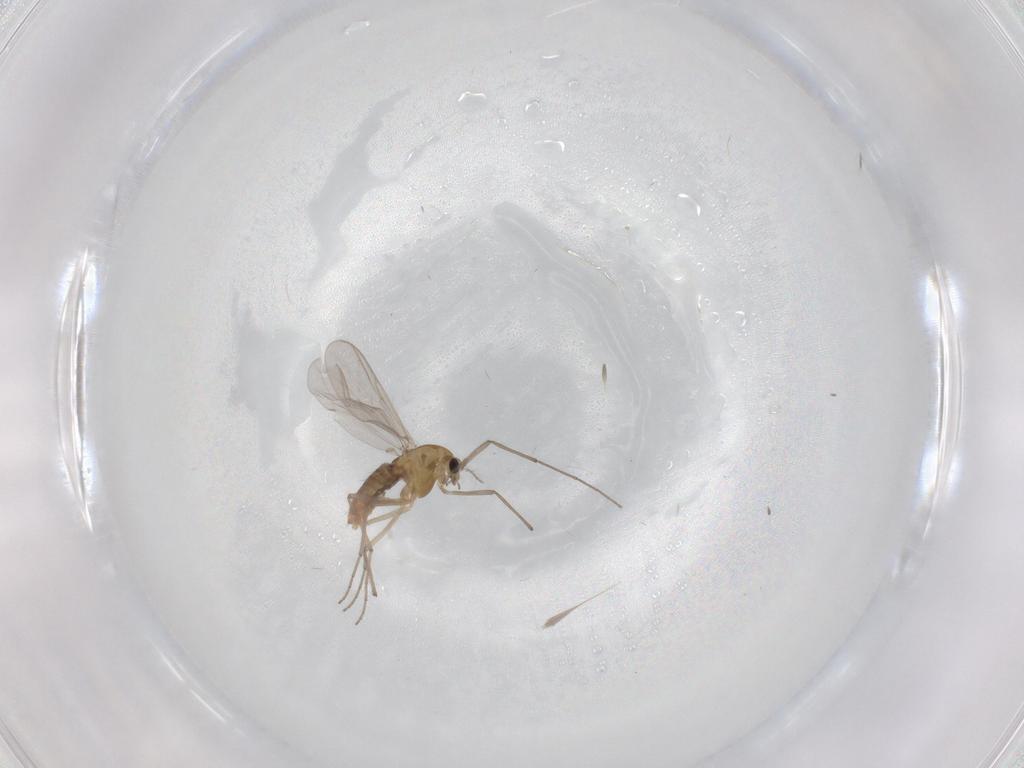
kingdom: Animalia
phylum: Arthropoda
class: Insecta
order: Diptera
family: Chironomidae
